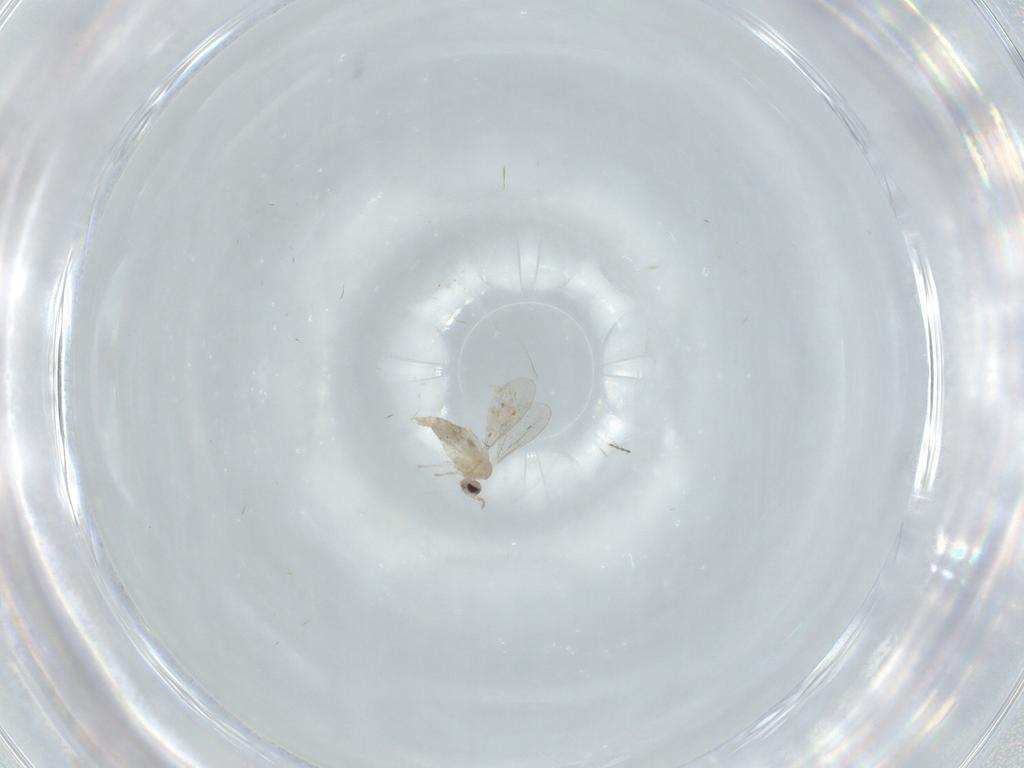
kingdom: Animalia
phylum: Arthropoda
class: Insecta
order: Diptera
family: Cecidomyiidae
